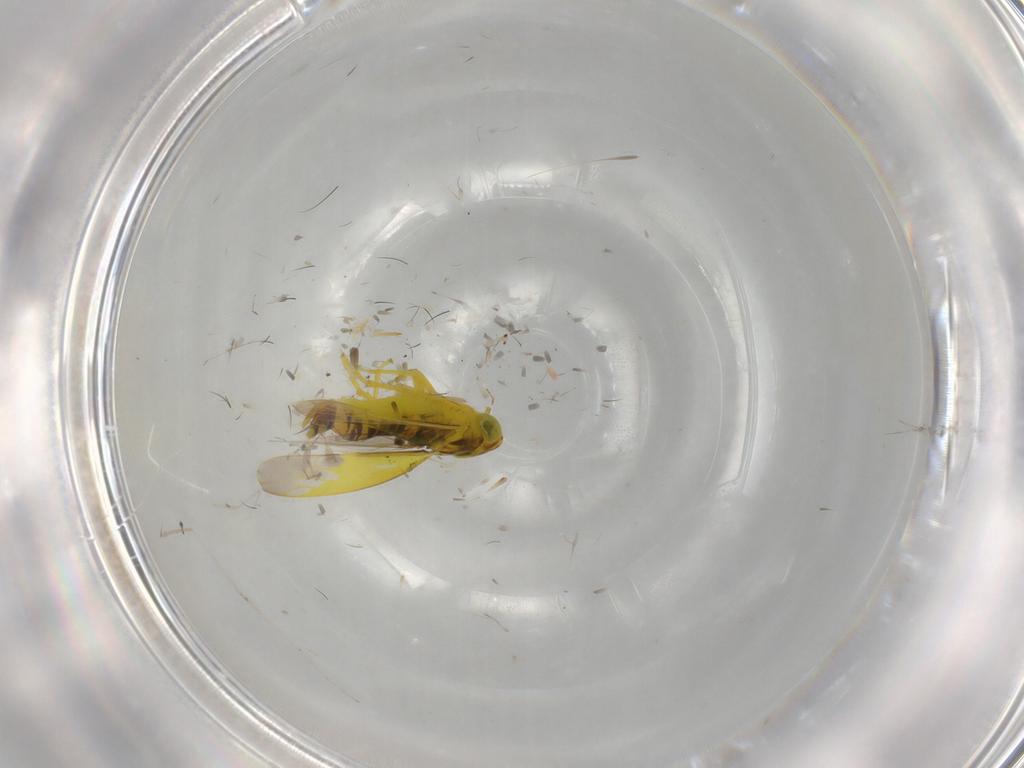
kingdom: Animalia
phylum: Arthropoda
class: Insecta
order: Hemiptera
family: Cicadellidae
